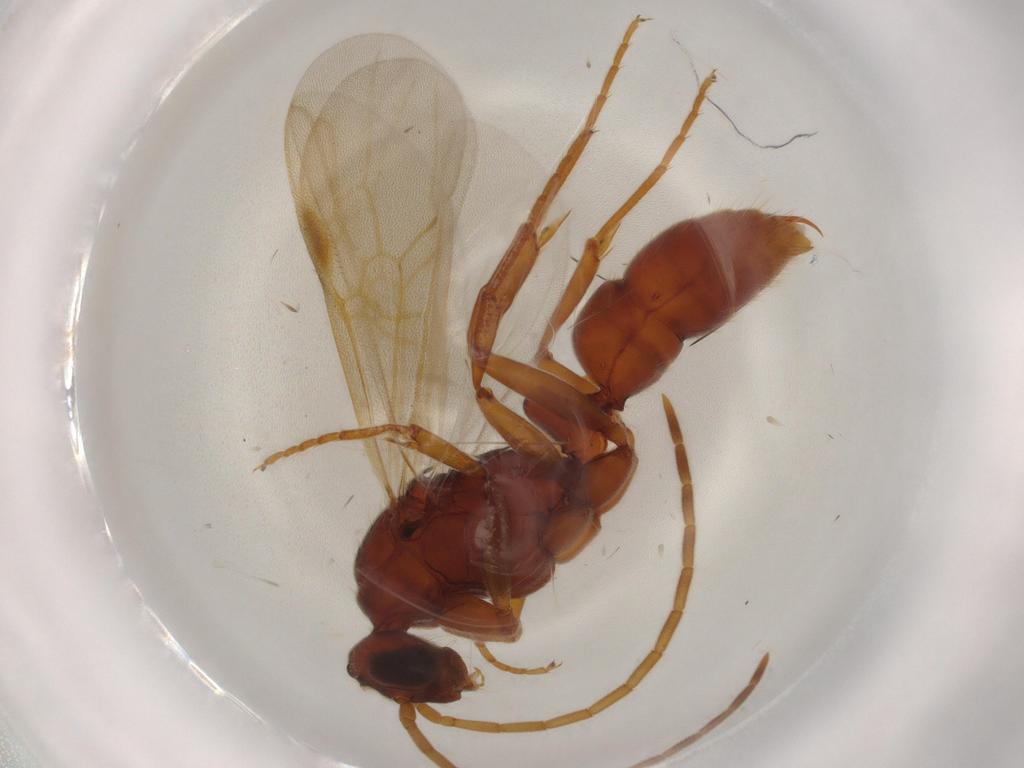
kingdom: Animalia
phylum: Arthropoda
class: Insecta
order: Hymenoptera
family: Formicidae
